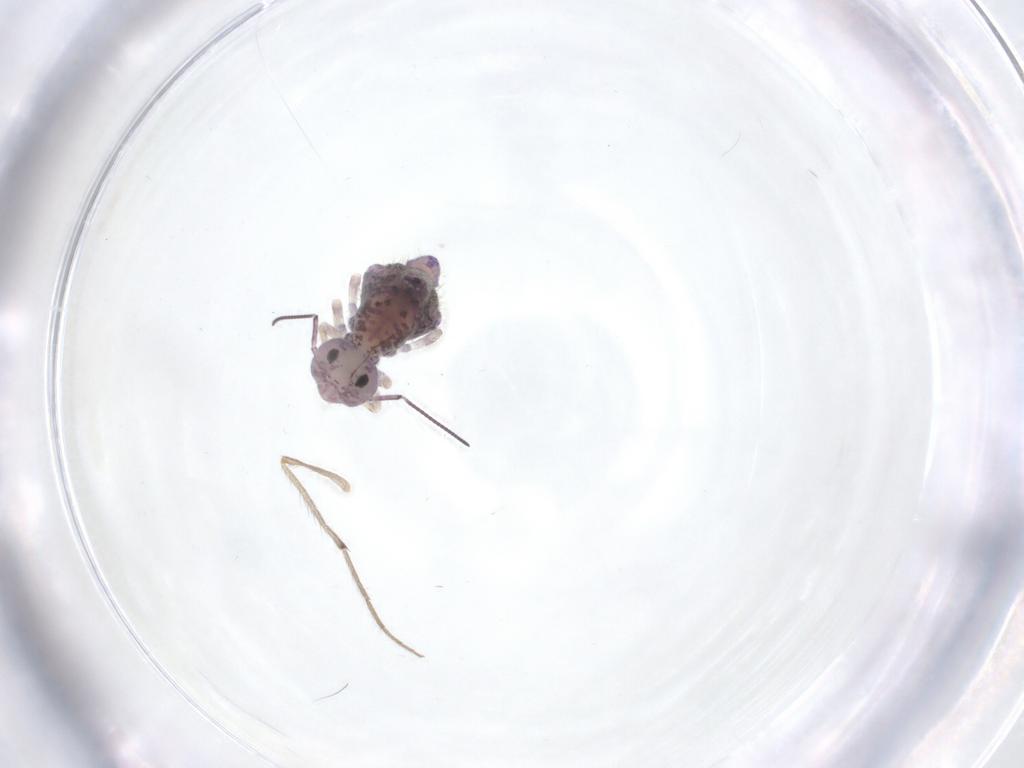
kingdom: Animalia
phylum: Arthropoda
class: Collembola
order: Symphypleona
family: Sminthuridae
